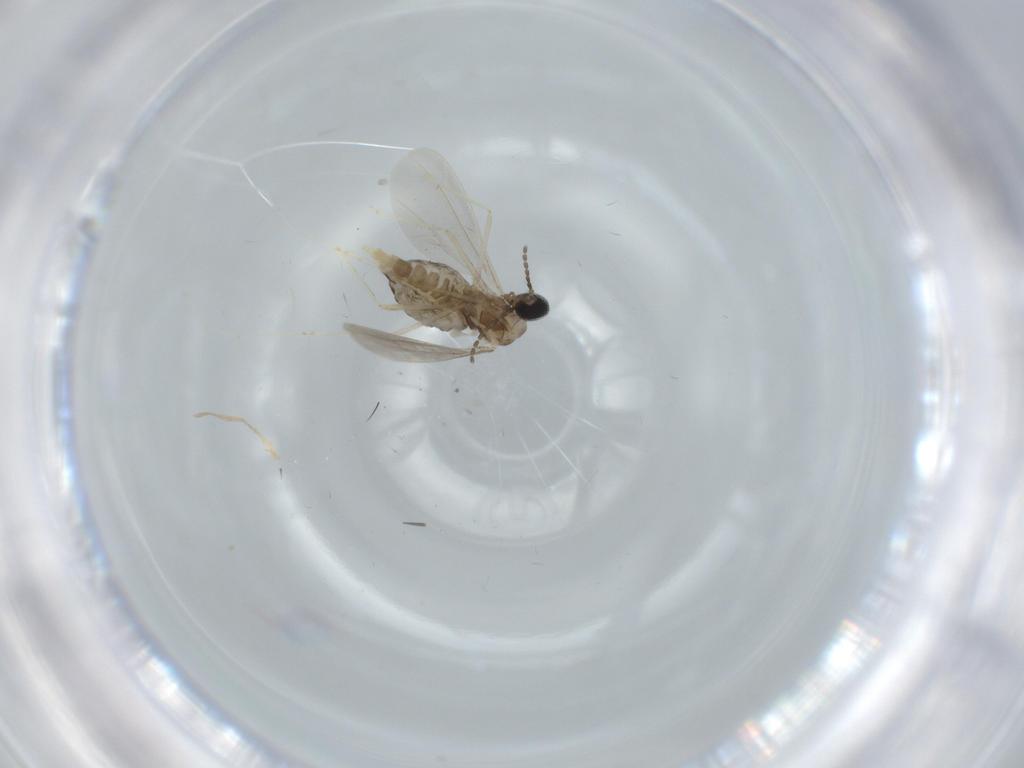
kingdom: Animalia
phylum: Arthropoda
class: Insecta
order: Diptera
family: Cecidomyiidae
